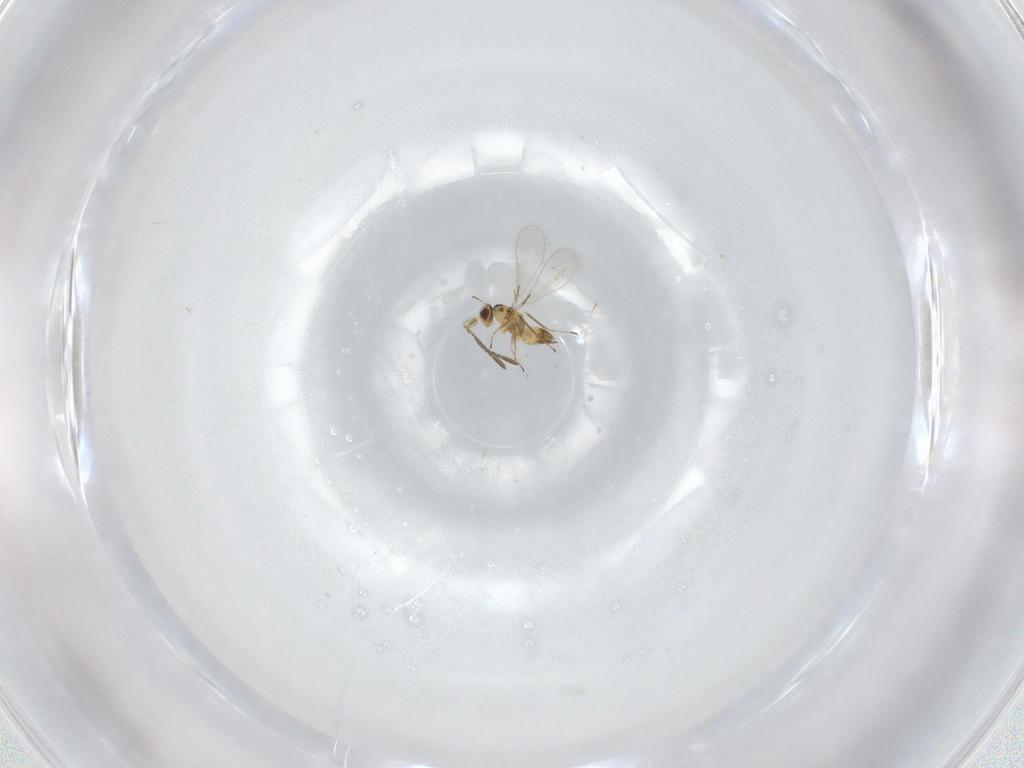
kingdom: Animalia
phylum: Arthropoda
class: Insecta
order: Hymenoptera
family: Mymaridae
